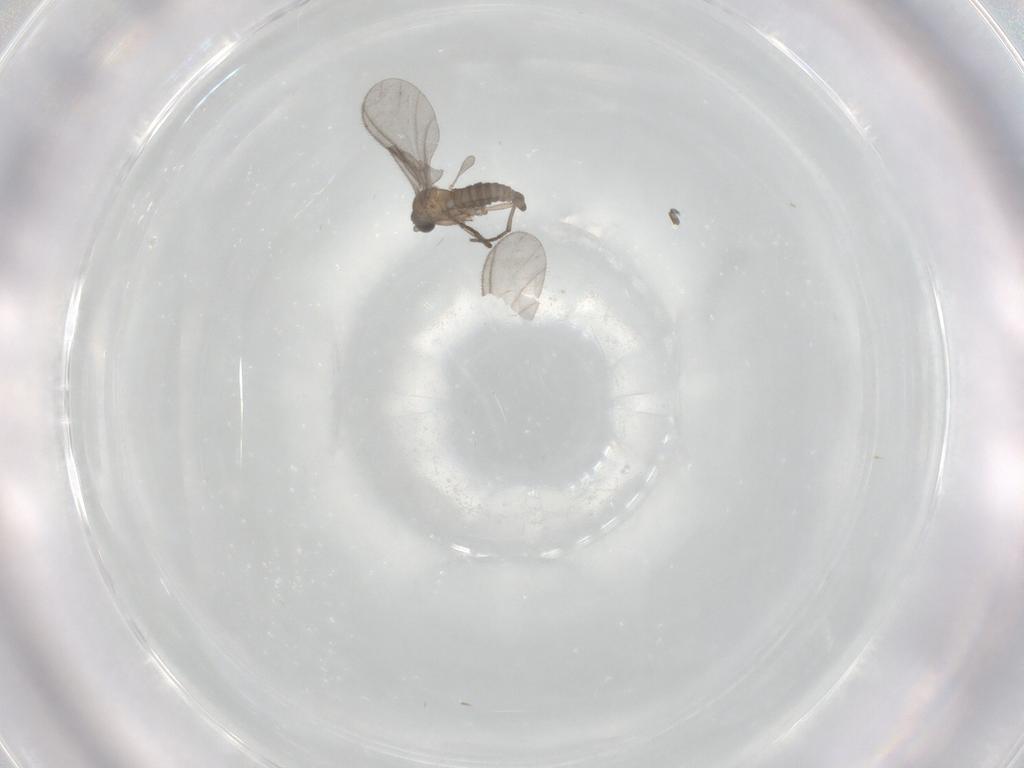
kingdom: Animalia
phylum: Arthropoda
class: Insecta
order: Diptera
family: Sciaridae
